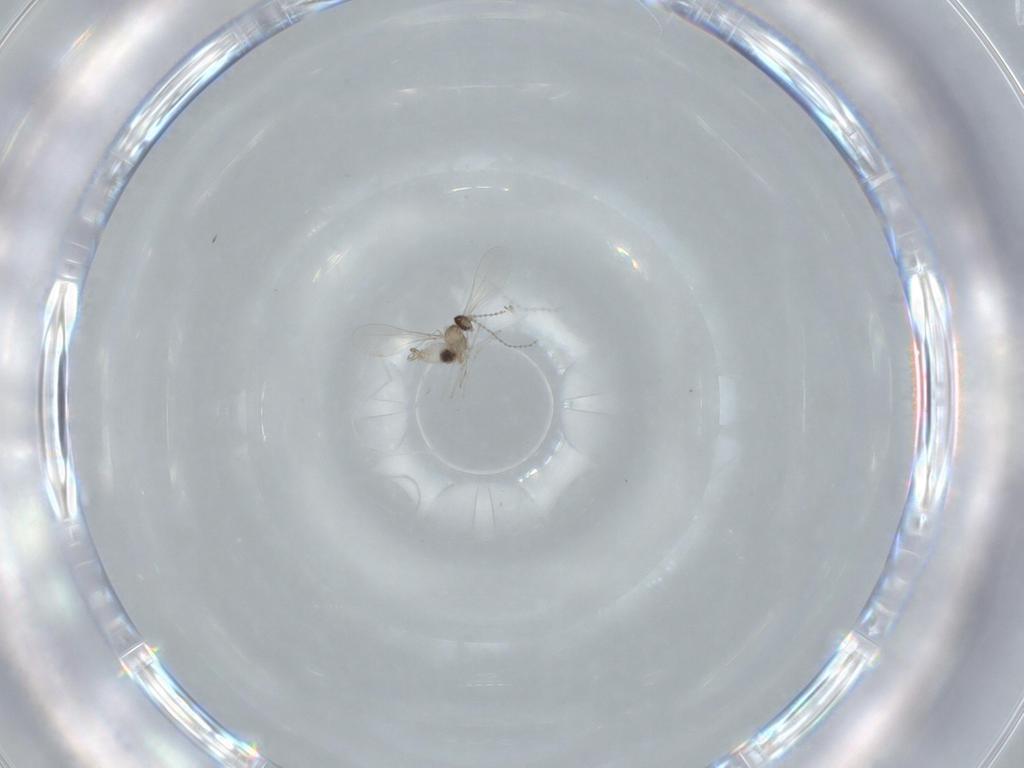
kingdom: Animalia
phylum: Arthropoda
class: Insecta
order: Diptera
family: Cecidomyiidae
